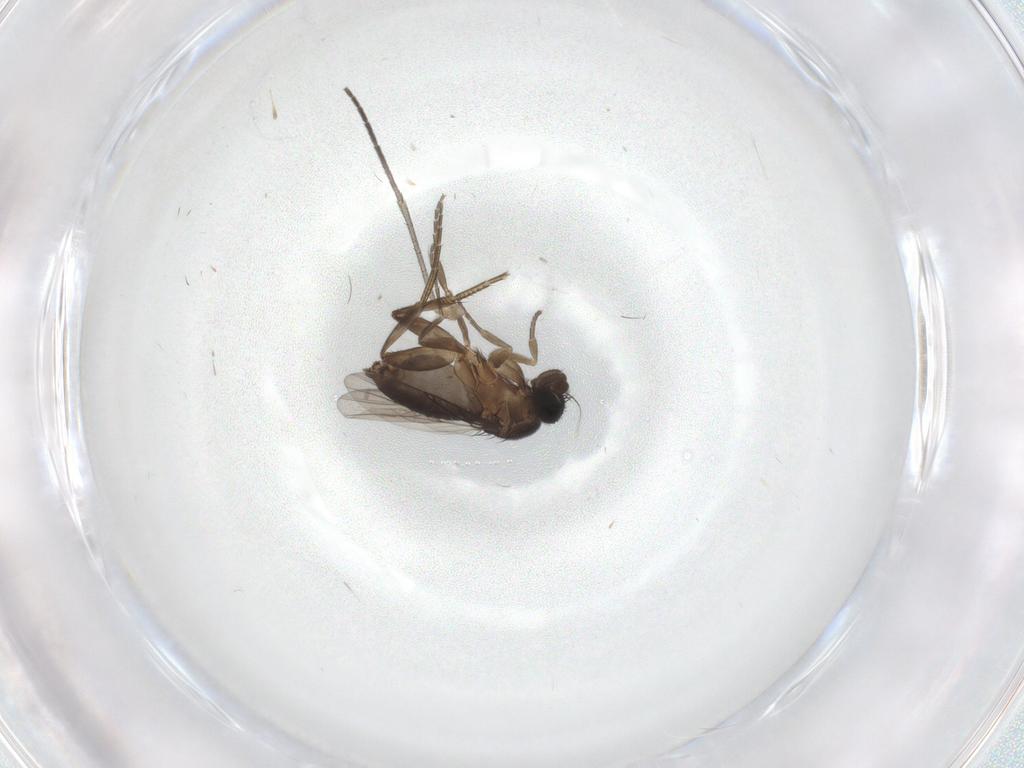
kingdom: Animalia
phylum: Arthropoda
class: Insecta
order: Diptera
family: Phoridae
